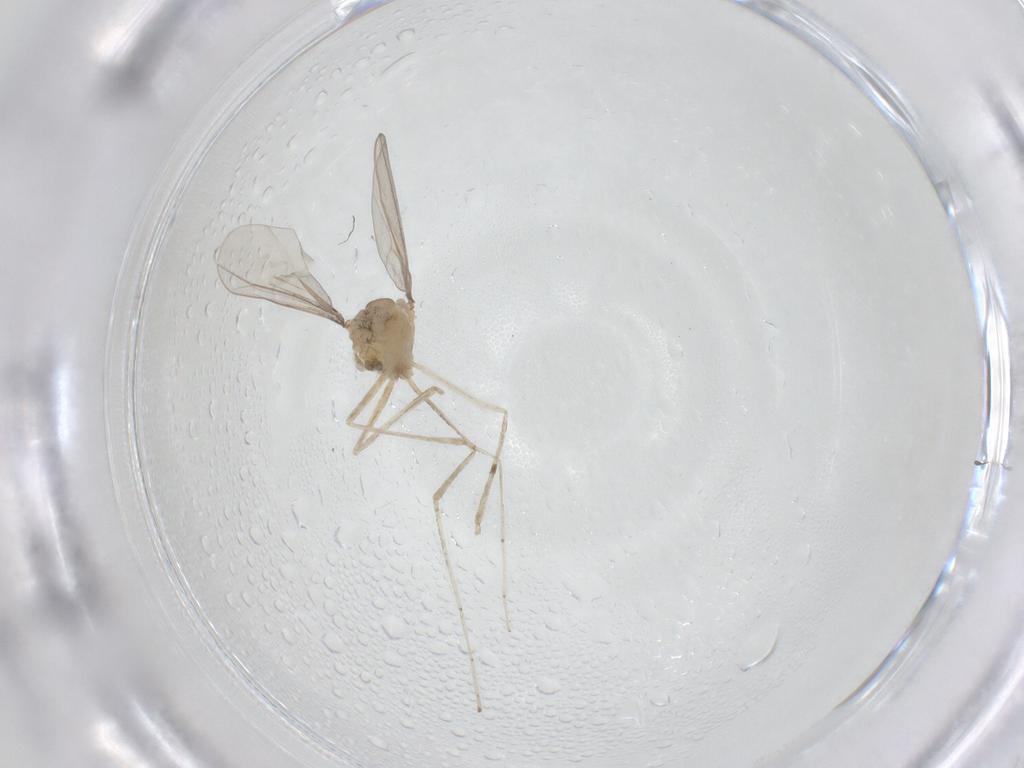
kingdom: Animalia
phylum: Arthropoda
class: Insecta
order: Diptera
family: Cecidomyiidae
